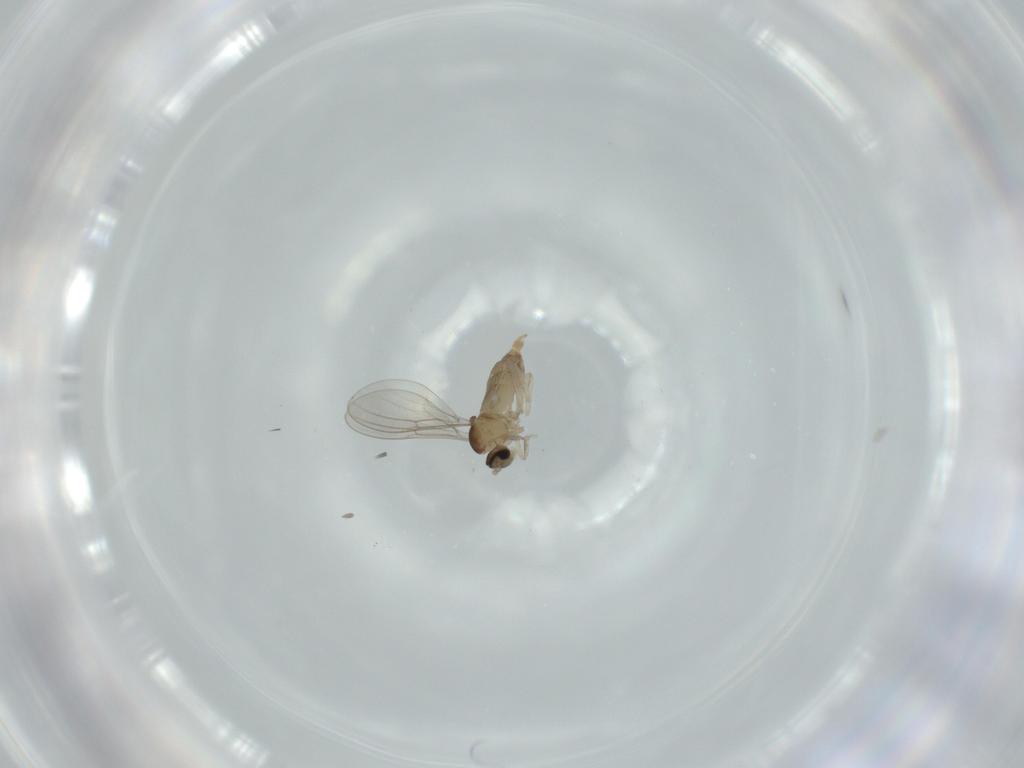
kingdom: Animalia
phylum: Arthropoda
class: Insecta
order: Diptera
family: Cecidomyiidae
